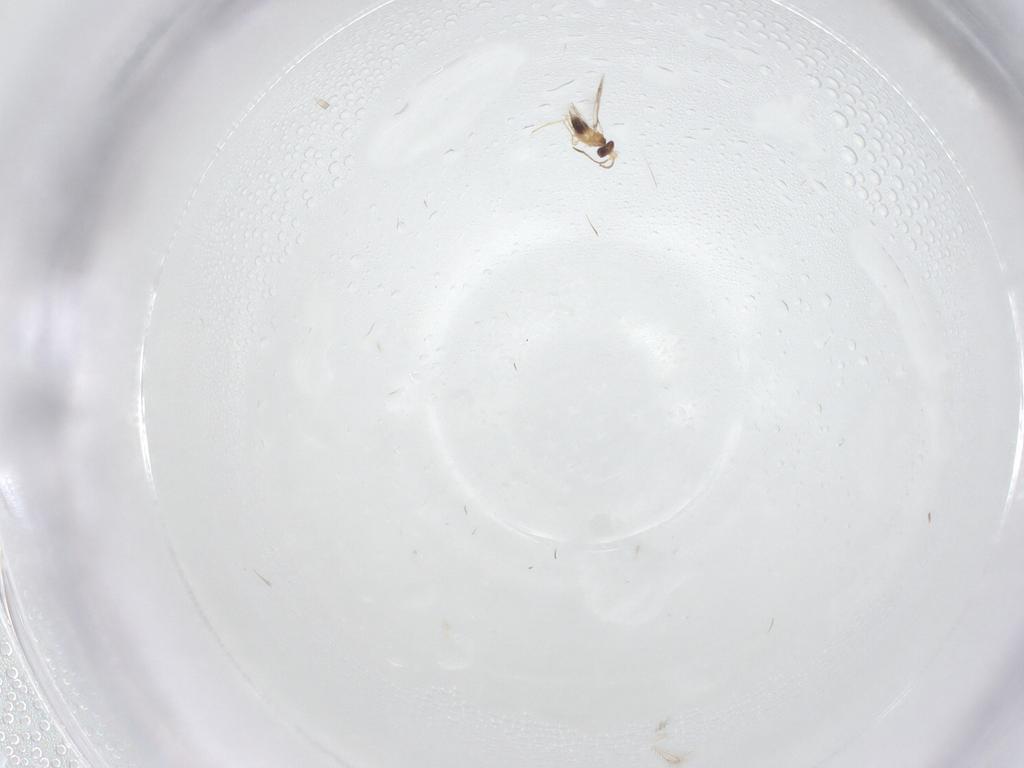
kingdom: Animalia
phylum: Arthropoda
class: Insecta
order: Hymenoptera
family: Mymaridae
